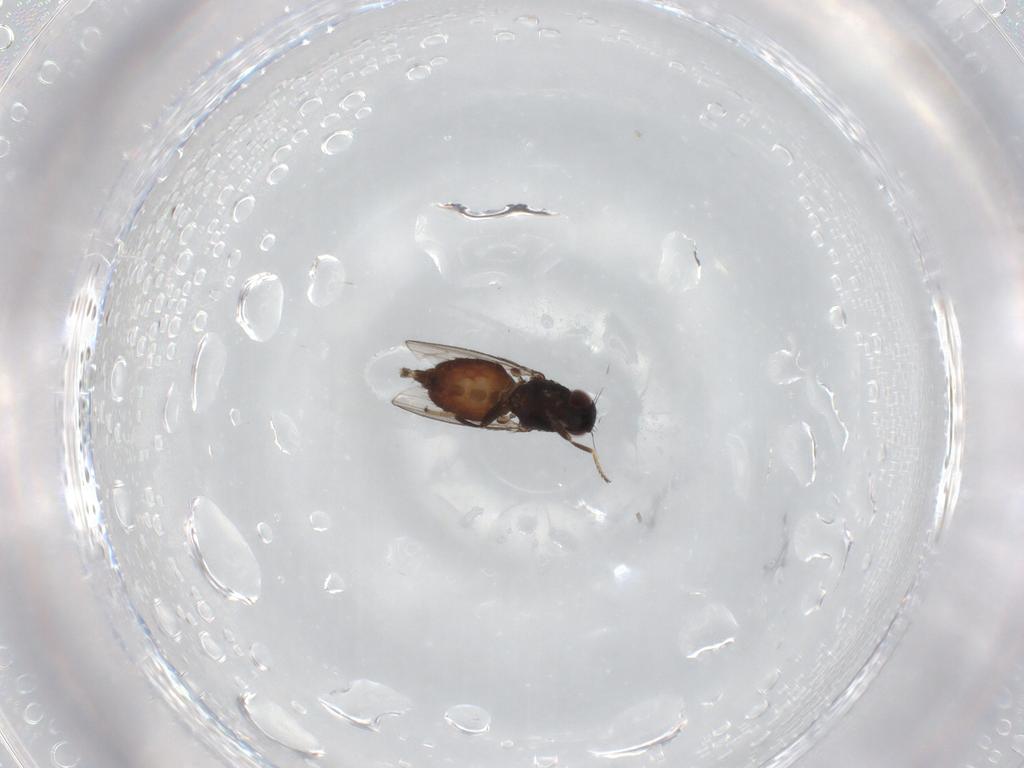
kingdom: Animalia
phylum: Arthropoda
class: Insecta
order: Diptera
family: Milichiidae
